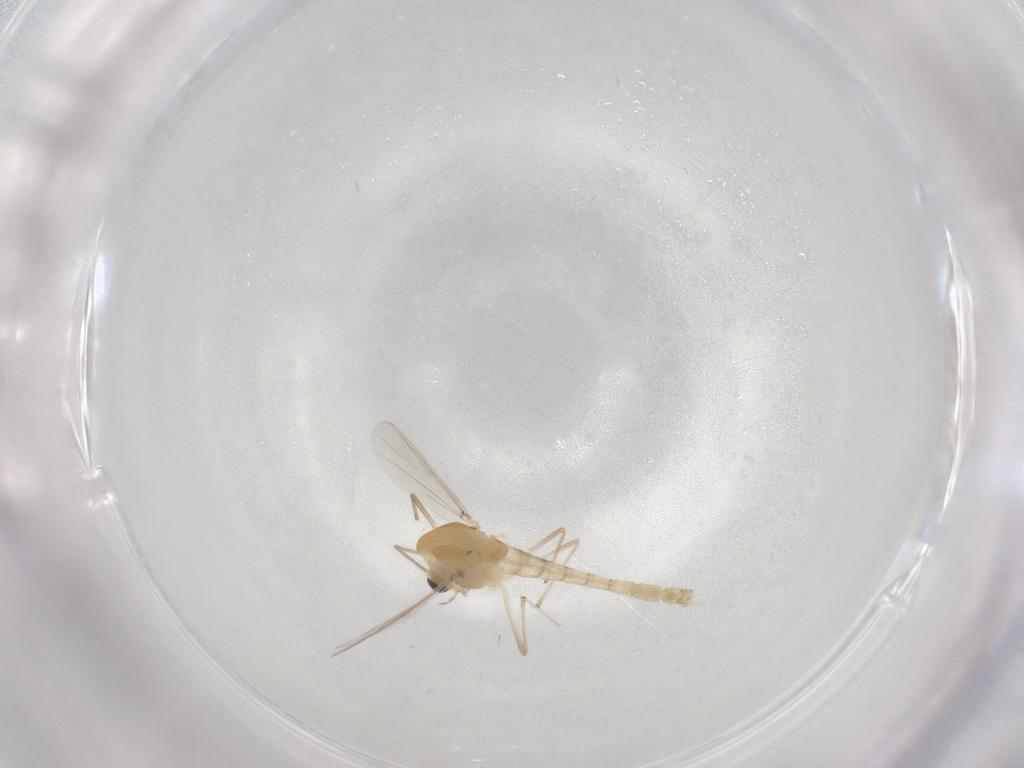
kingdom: Animalia
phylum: Arthropoda
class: Insecta
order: Diptera
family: Chironomidae
